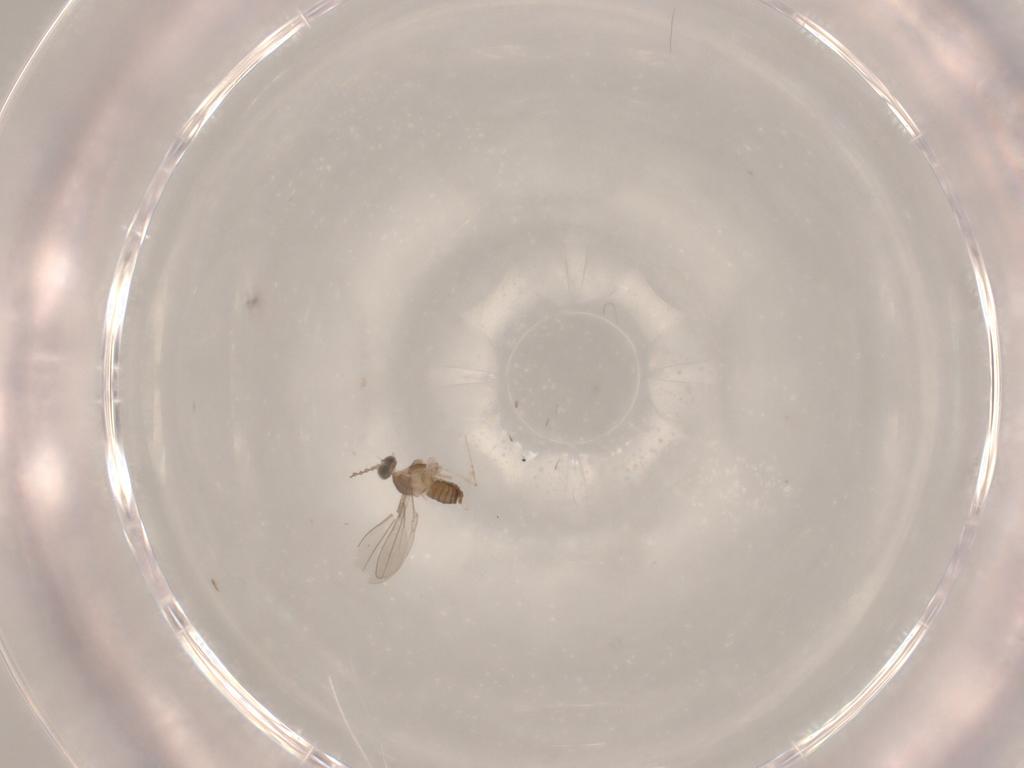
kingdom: Animalia
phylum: Arthropoda
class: Insecta
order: Diptera
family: Cecidomyiidae
